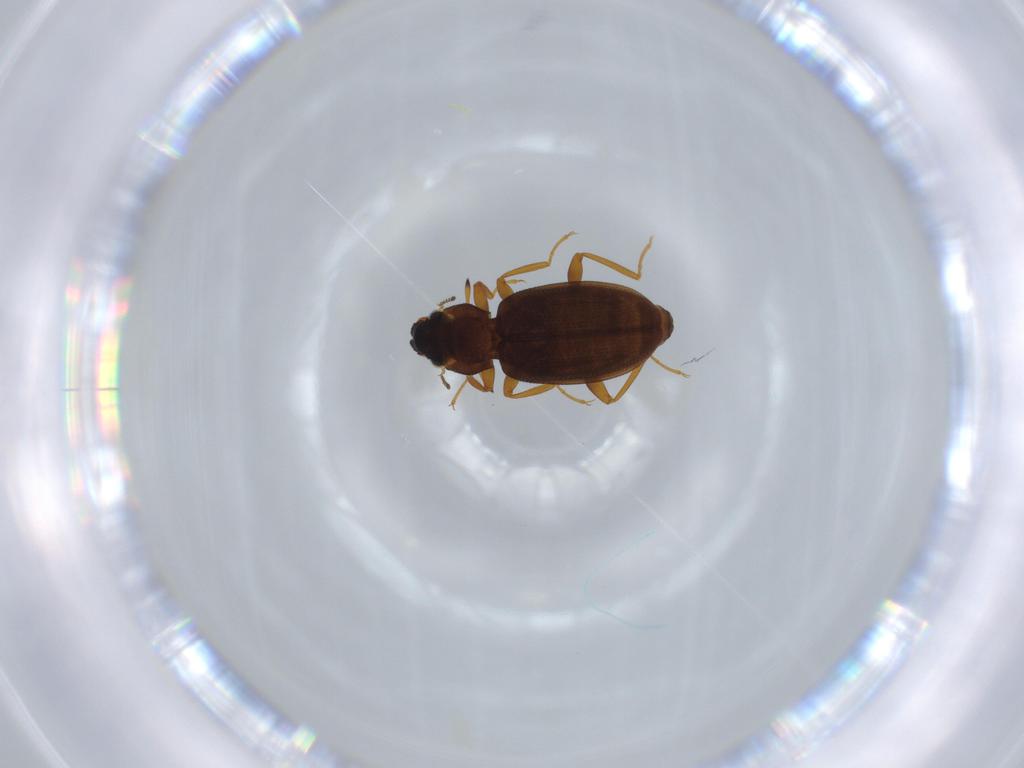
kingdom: Animalia
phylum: Arthropoda
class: Insecta
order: Coleoptera
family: Hydraenidae
